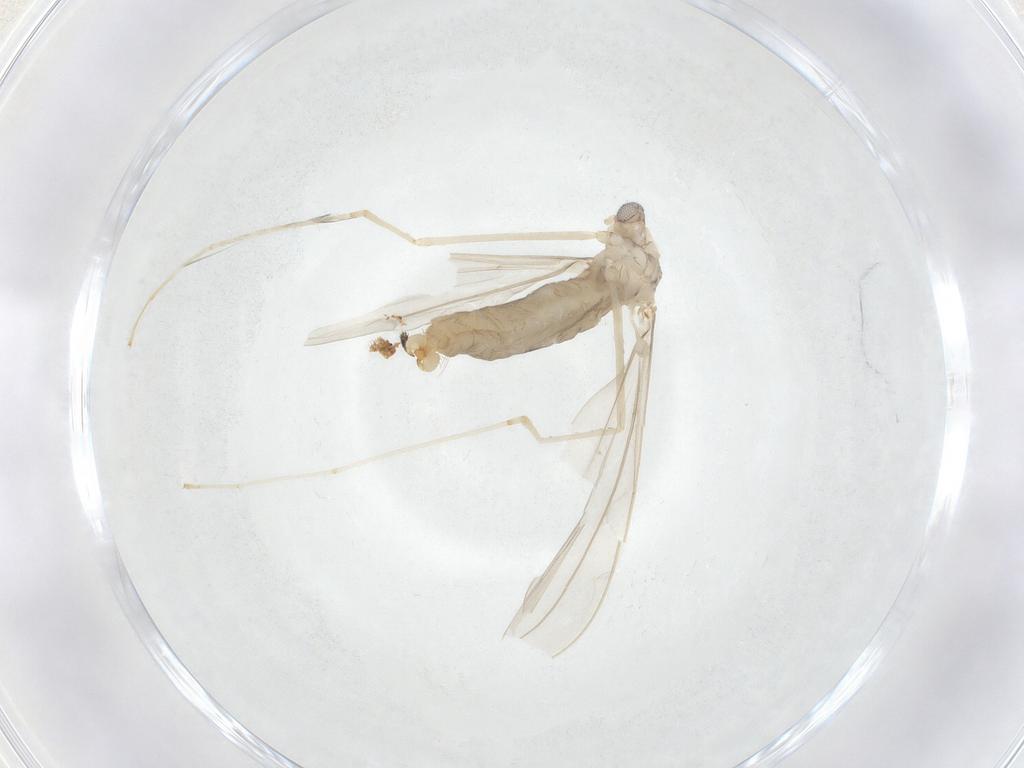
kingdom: Animalia
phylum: Arthropoda
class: Insecta
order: Diptera
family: Cecidomyiidae
